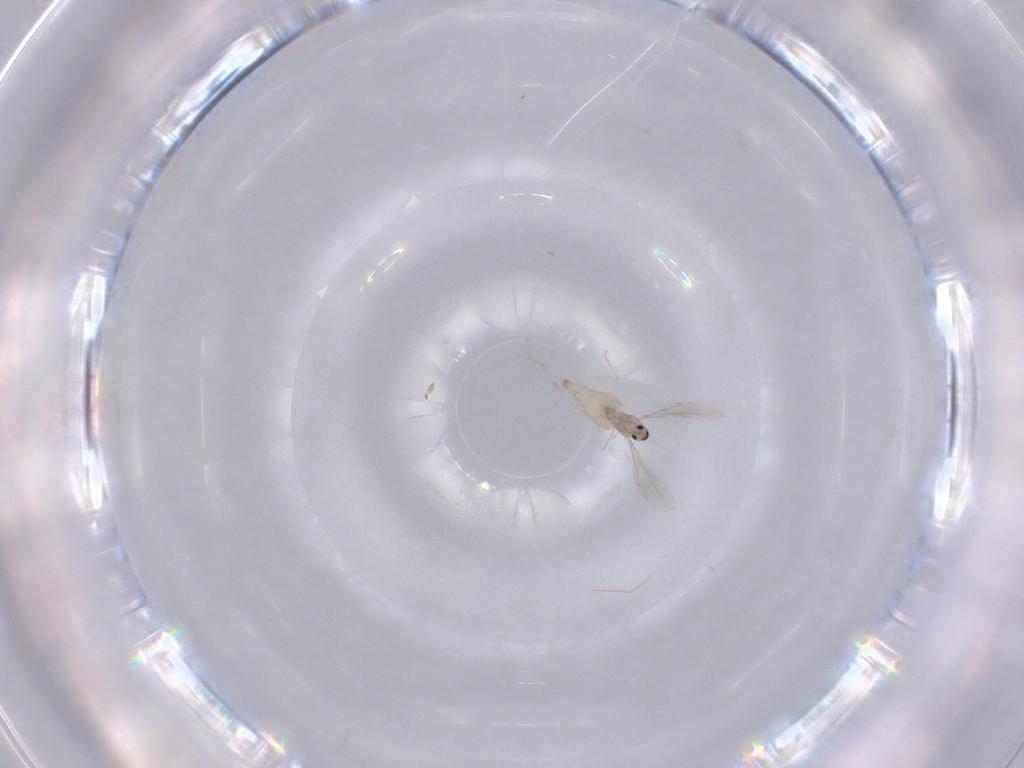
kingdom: Animalia
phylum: Arthropoda
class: Insecta
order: Diptera
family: Cecidomyiidae
